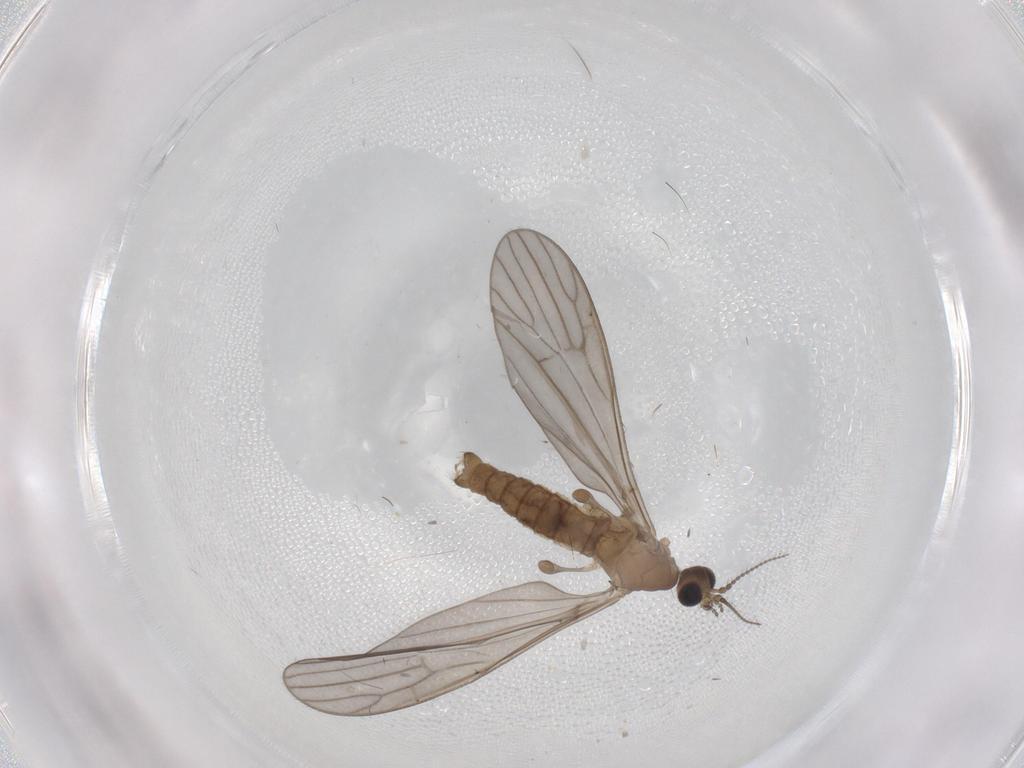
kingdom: Animalia
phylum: Arthropoda
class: Insecta
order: Diptera
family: Limoniidae
